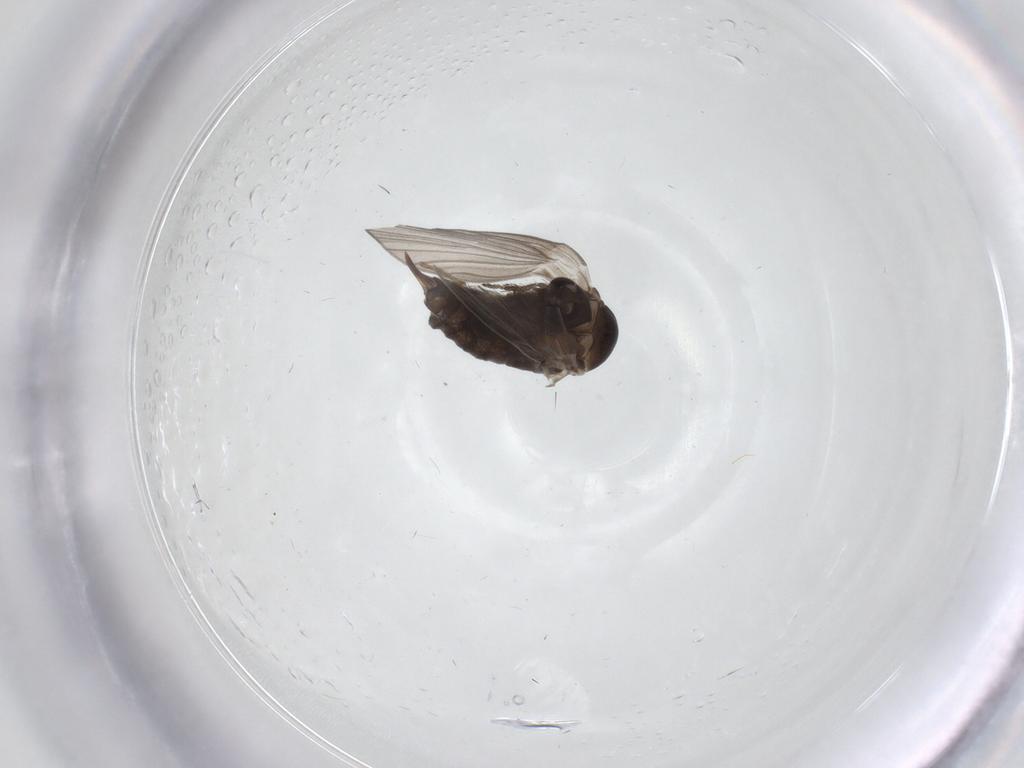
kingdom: Animalia
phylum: Arthropoda
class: Insecta
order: Diptera
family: Psychodidae
